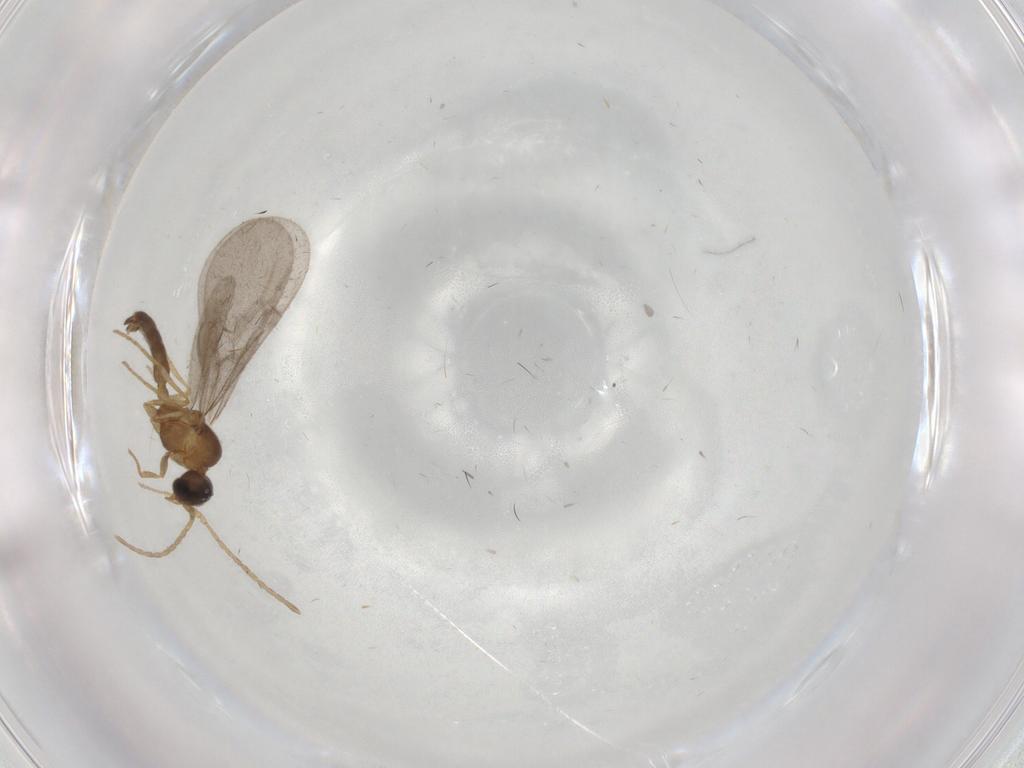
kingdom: Animalia
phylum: Arthropoda
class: Insecta
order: Hymenoptera
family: Formicidae
